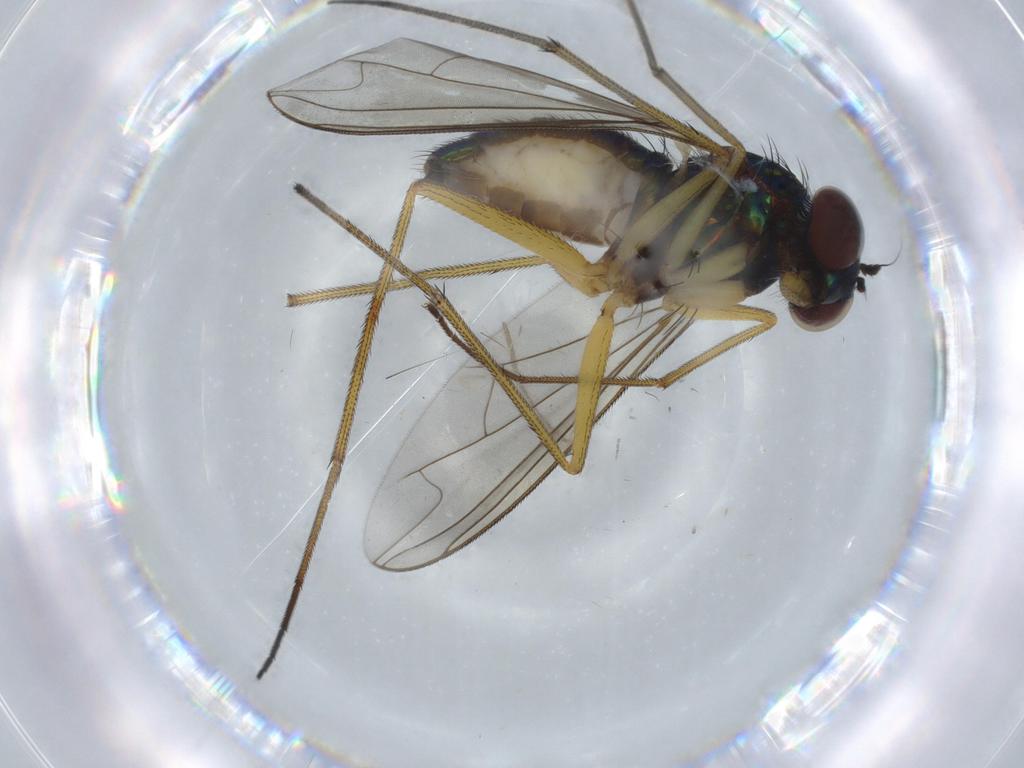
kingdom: Animalia
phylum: Arthropoda
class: Insecta
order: Diptera
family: Dolichopodidae
